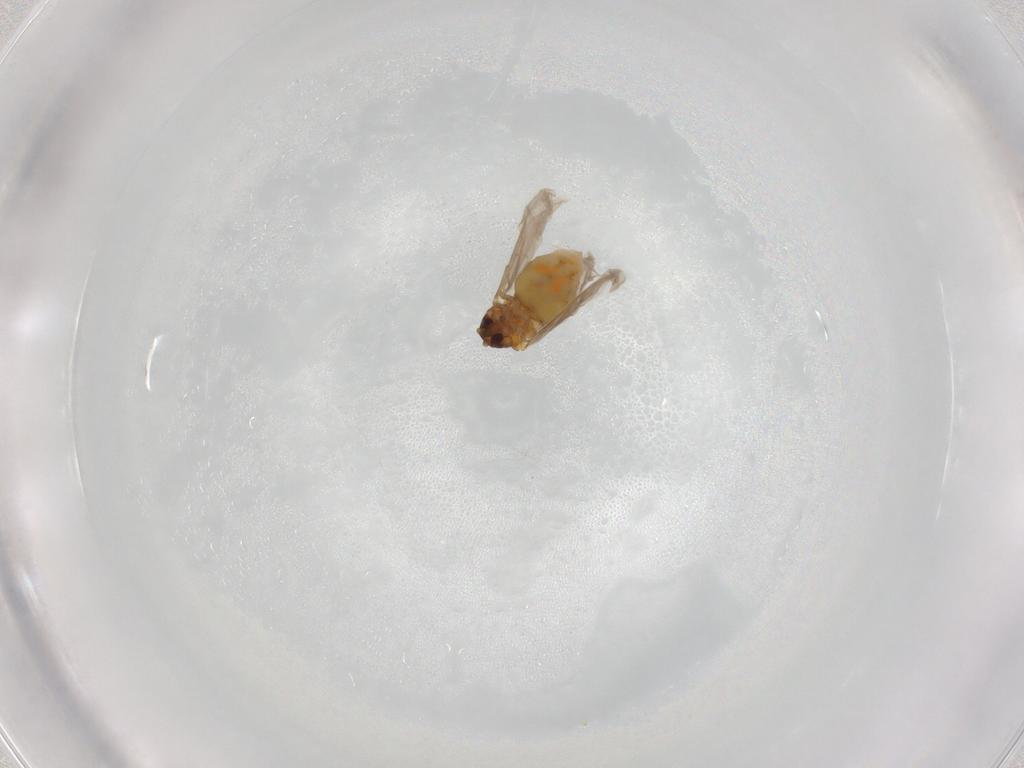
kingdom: Animalia
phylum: Arthropoda
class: Insecta
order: Hemiptera
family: Aleyrodidae
